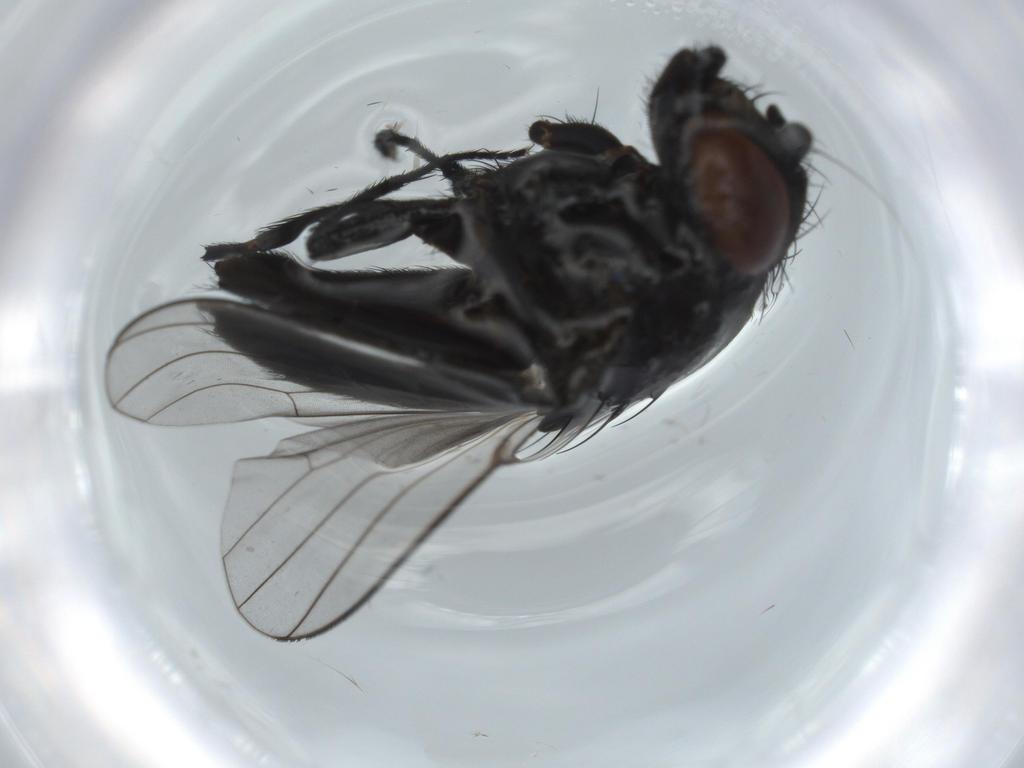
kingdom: Animalia
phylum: Arthropoda
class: Insecta
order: Diptera
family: Milichiidae
